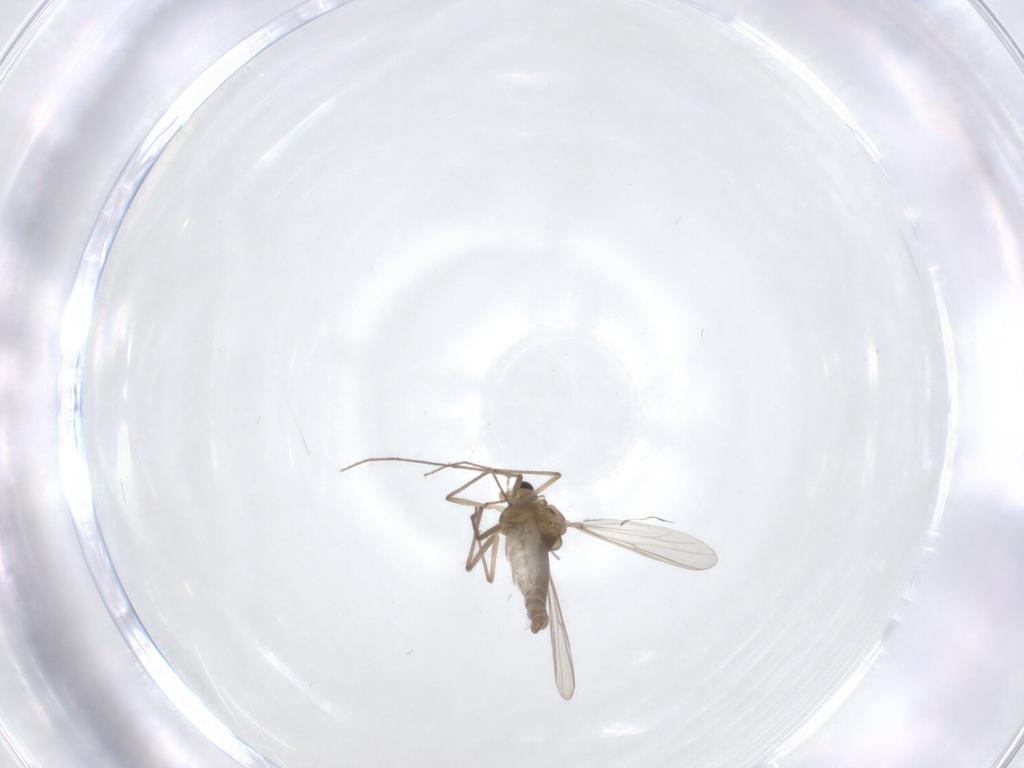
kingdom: Animalia
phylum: Arthropoda
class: Insecta
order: Diptera
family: Chironomidae
